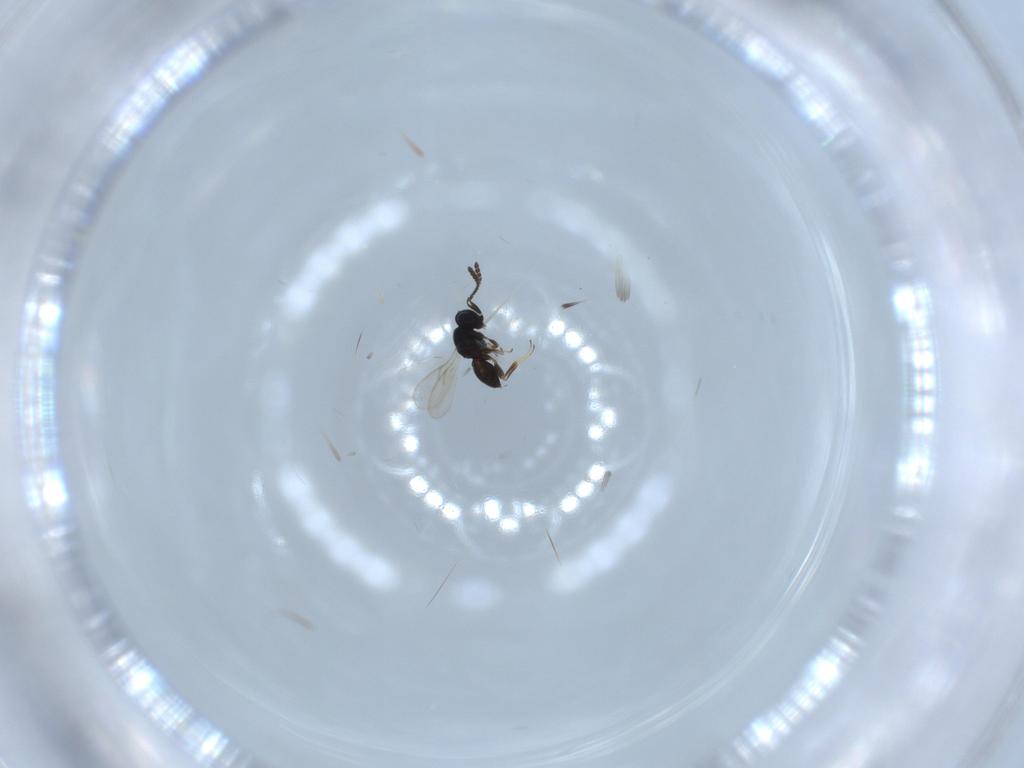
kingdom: Animalia
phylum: Arthropoda
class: Insecta
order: Hymenoptera
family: Scelionidae
